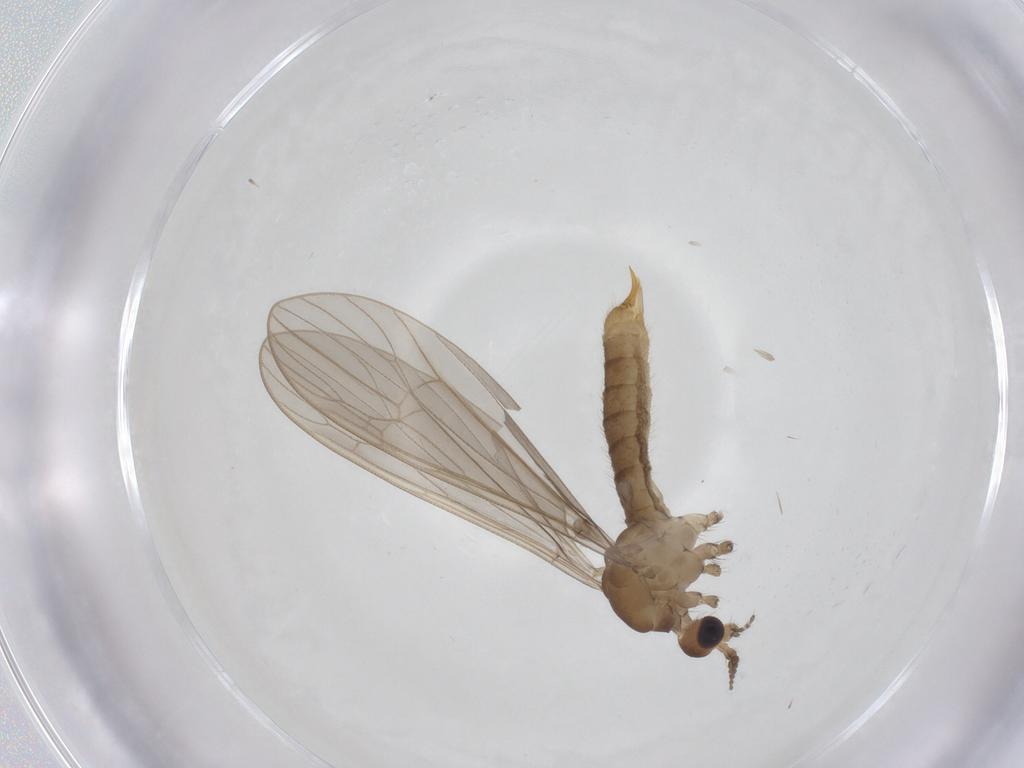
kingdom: Animalia
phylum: Arthropoda
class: Insecta
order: Diptera
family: Limoniidae
